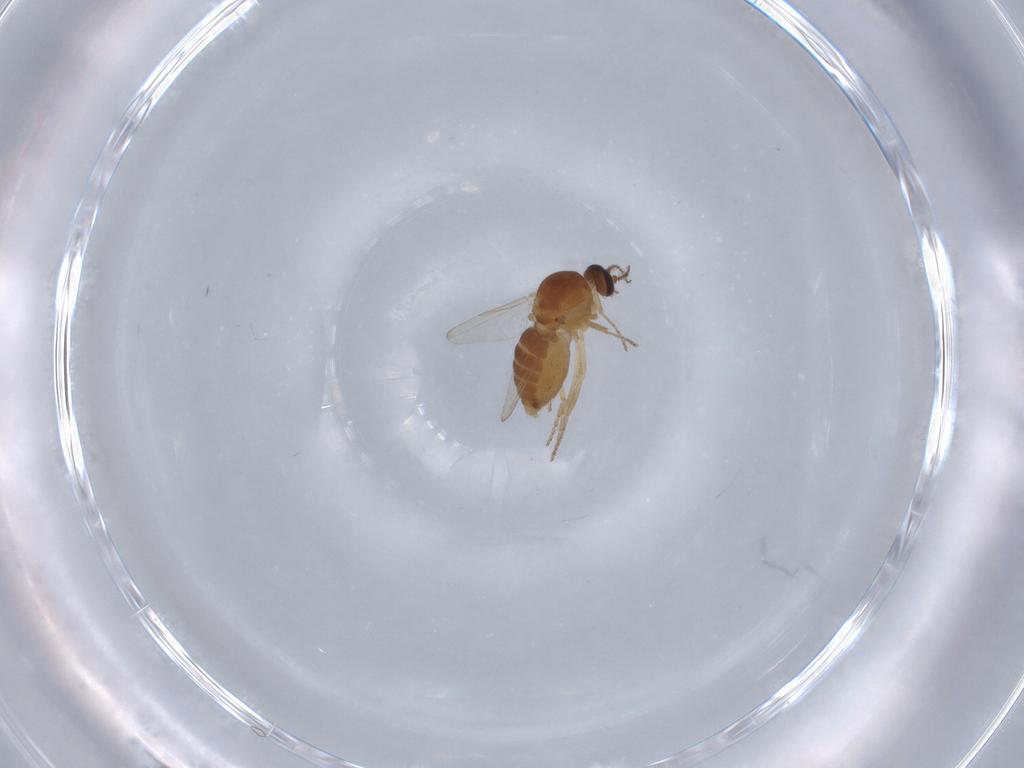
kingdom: Animalia
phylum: Arthropoda
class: Insecta
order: Diptera
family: Ceratopogonidae
